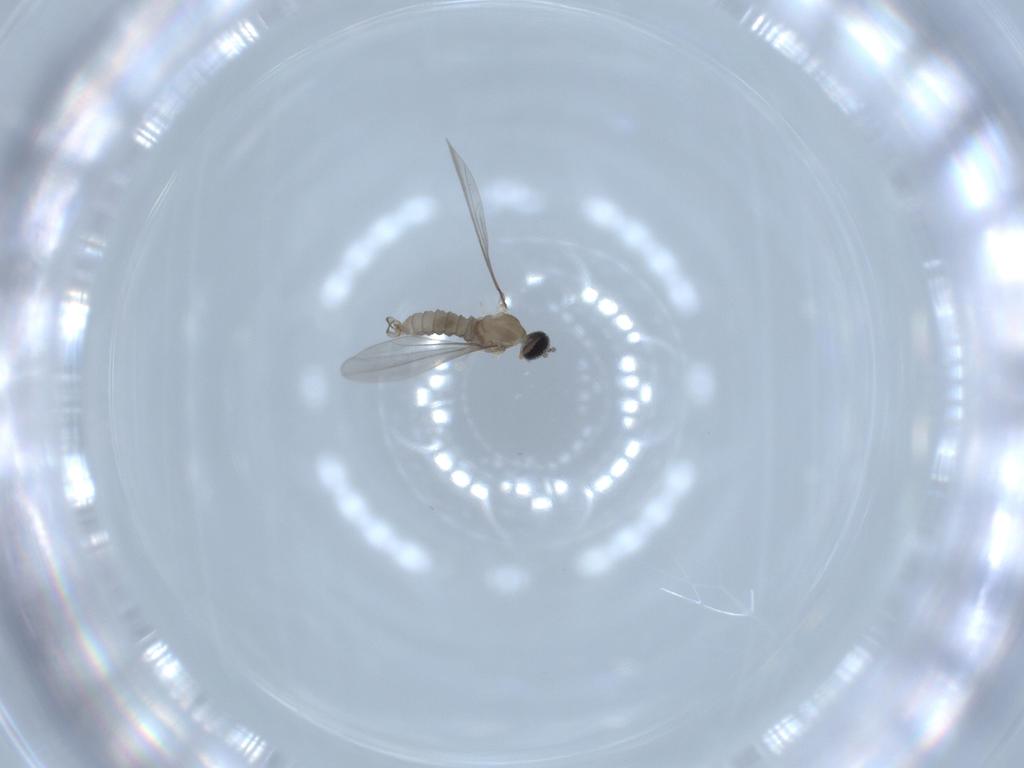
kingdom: Animalia
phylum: Arthropoda
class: Insecta
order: Diptera
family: Cecidomyiidae
